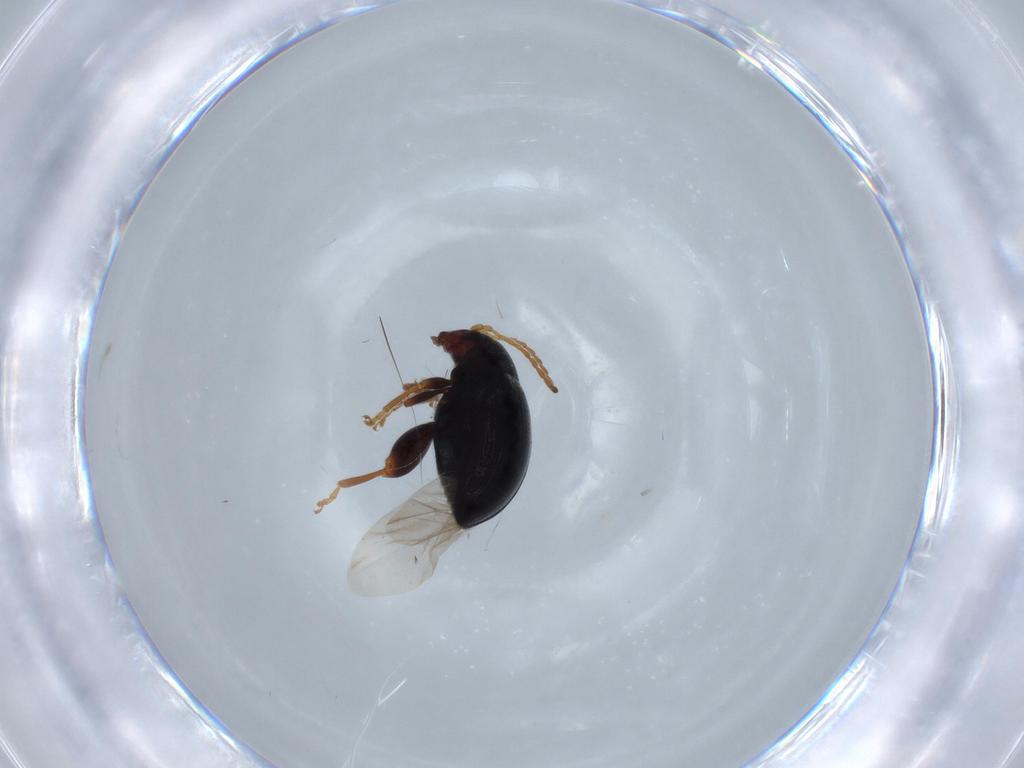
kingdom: Animalia
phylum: Arthropoda
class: Insecta
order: Coleoptera
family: Chrysomelidae
